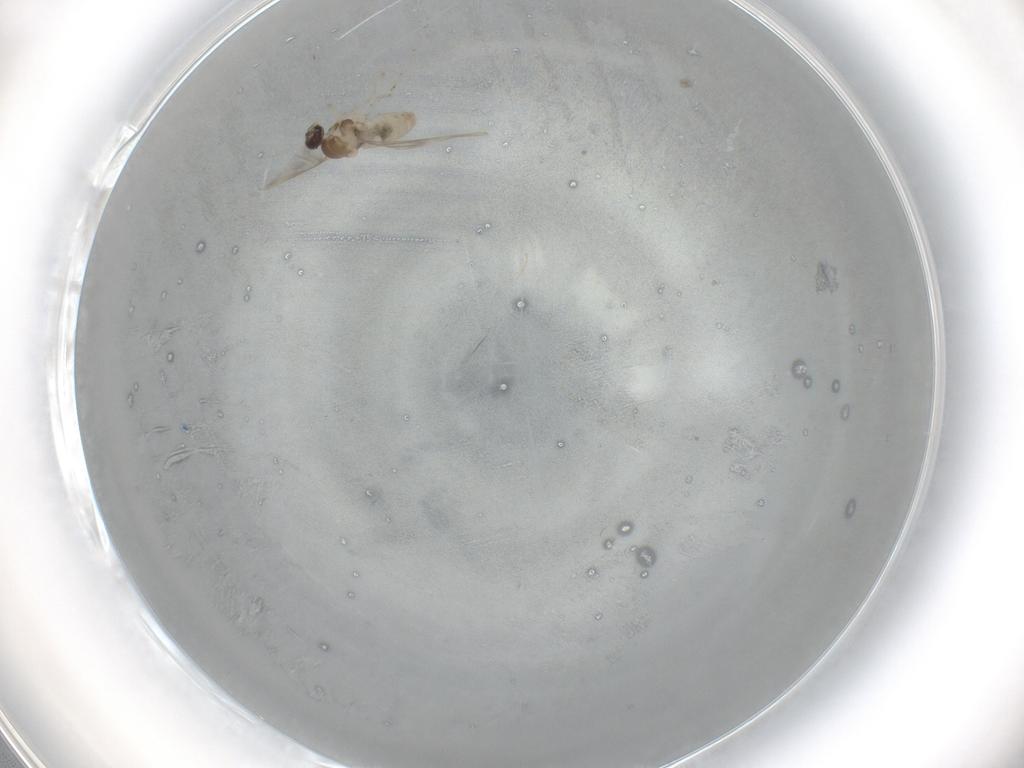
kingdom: Animalia
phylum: Arthropoda
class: Insecta
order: Diptera
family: Cecidomyiidae
